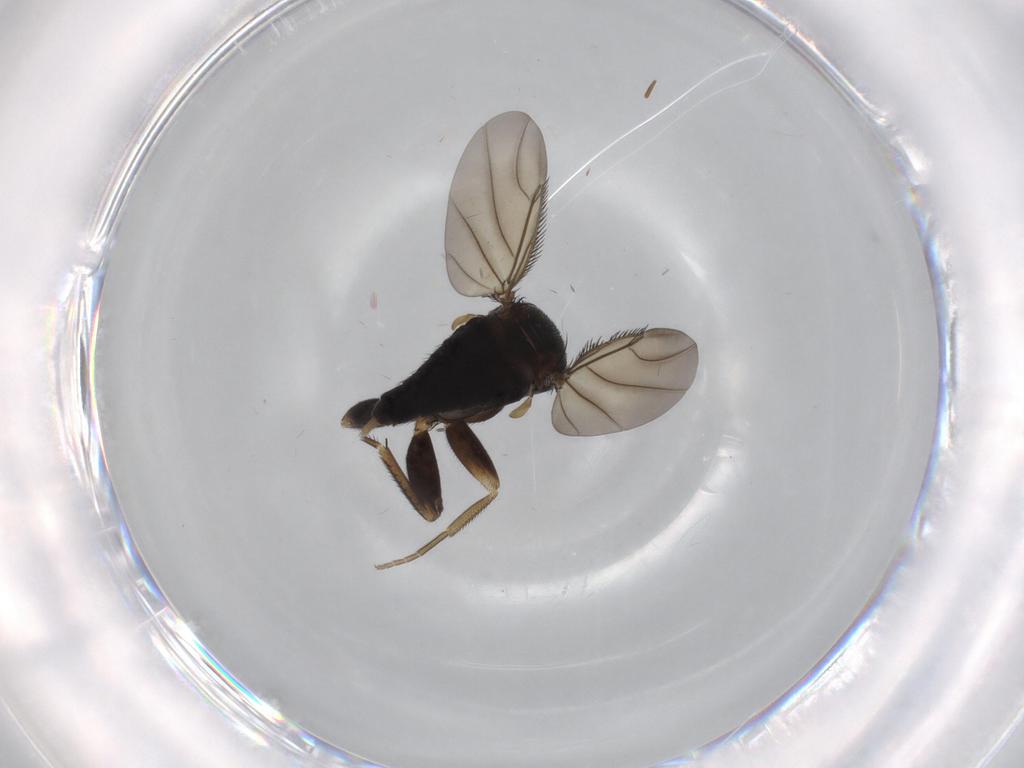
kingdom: Animalia
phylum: Arthropoda
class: Insecta
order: Diptera
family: Phoridae
